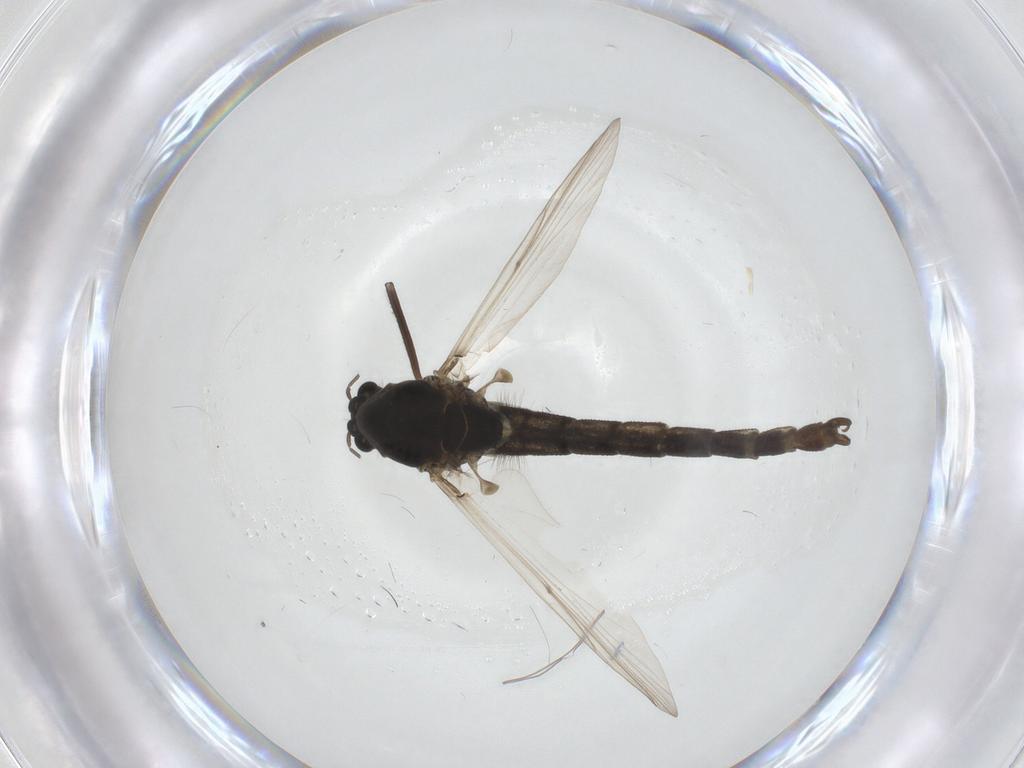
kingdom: Animalia
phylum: Arthropoda
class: Insecta
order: Diptera
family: Chironomidae
